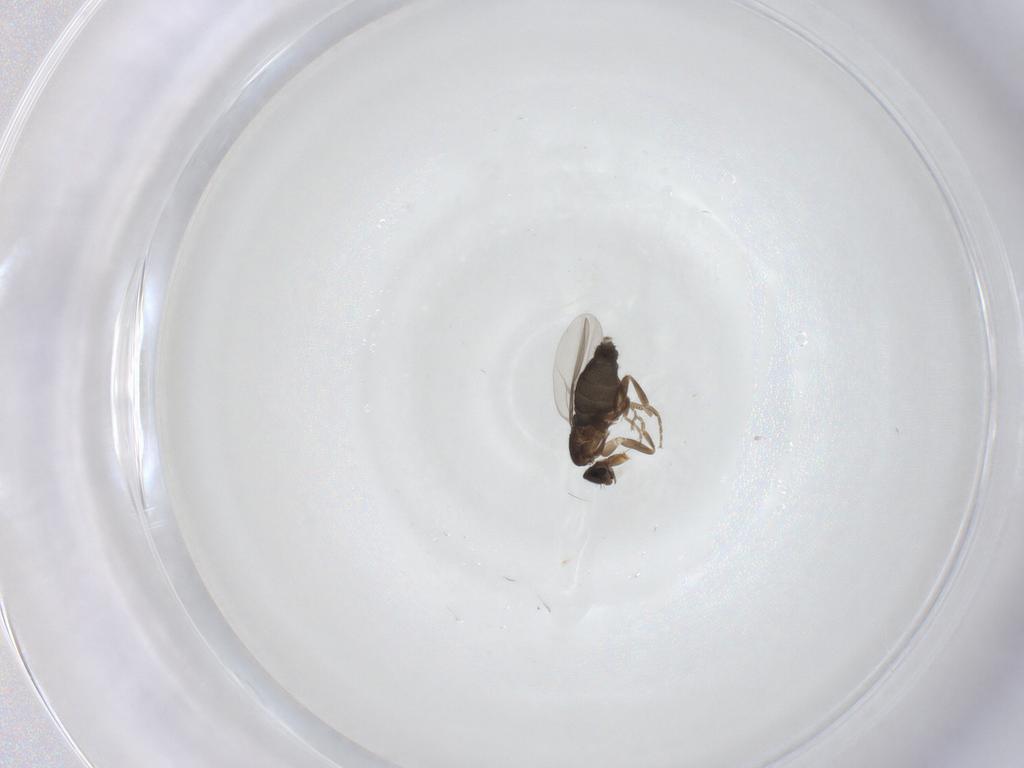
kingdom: Animalia
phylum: Arthropoda
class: Insecta
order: Diptera
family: Phoridae
